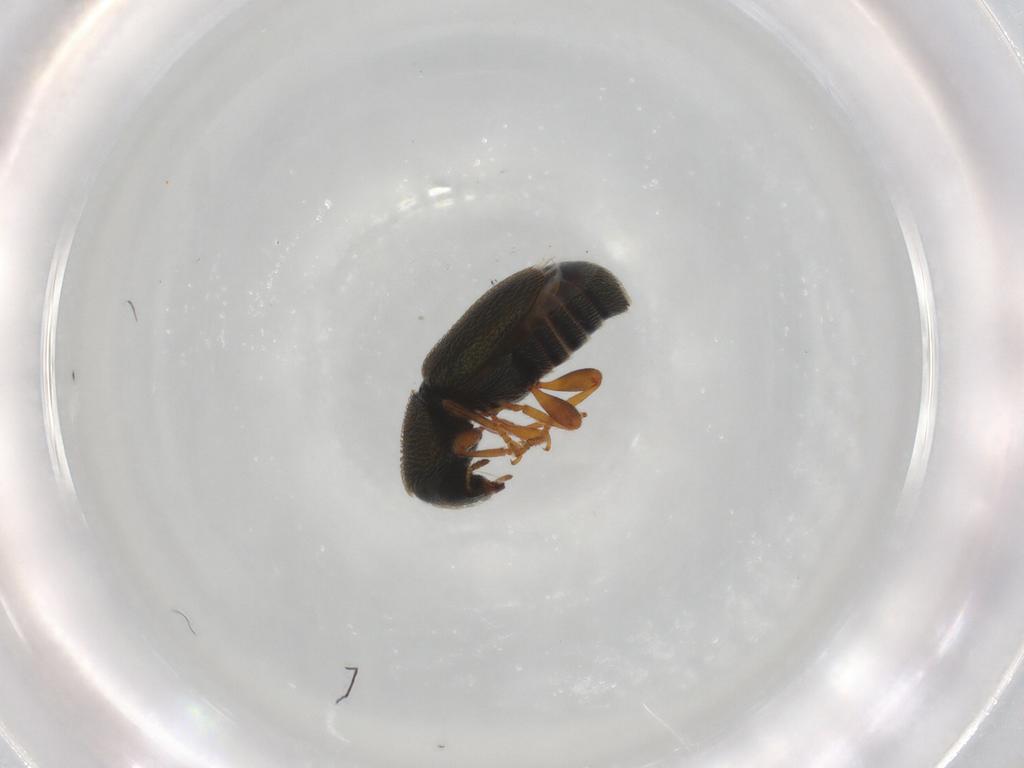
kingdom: Animalia
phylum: Arthropoda
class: Insecta
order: Coleoptera
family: Anthribidae
